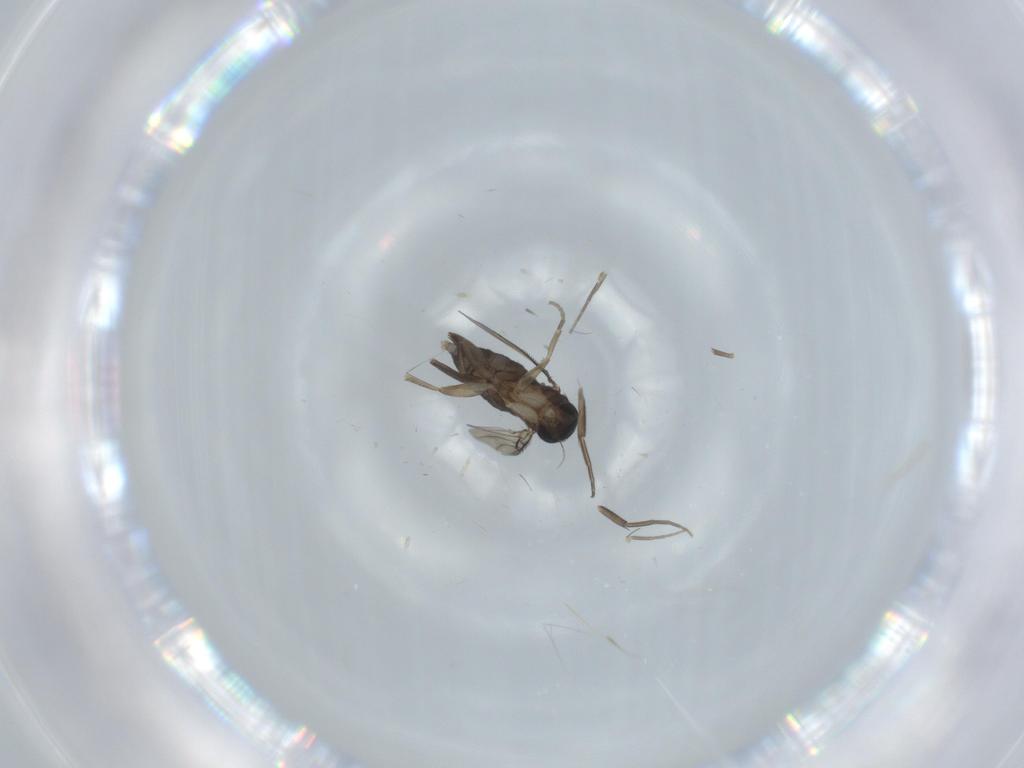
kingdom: Animalia
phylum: Arthropoda
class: Insecta
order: Diptera
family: Phoridae
